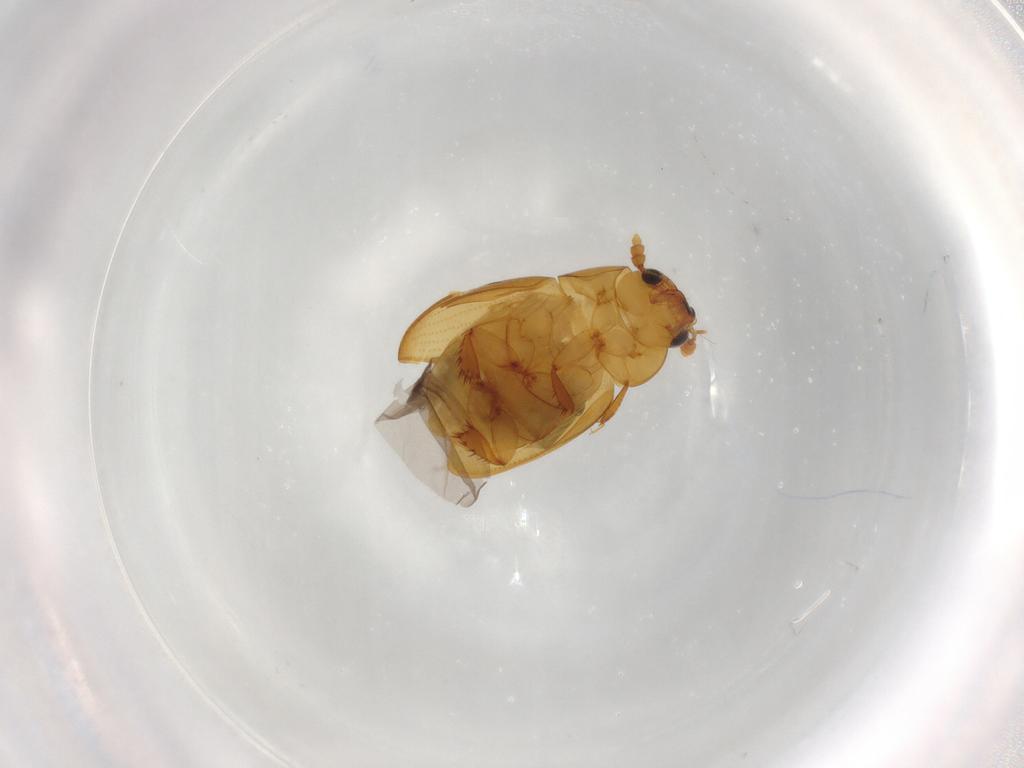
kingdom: Animalia
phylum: Arthropoda
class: Insecta
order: Coleoptera
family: Leiodidae
